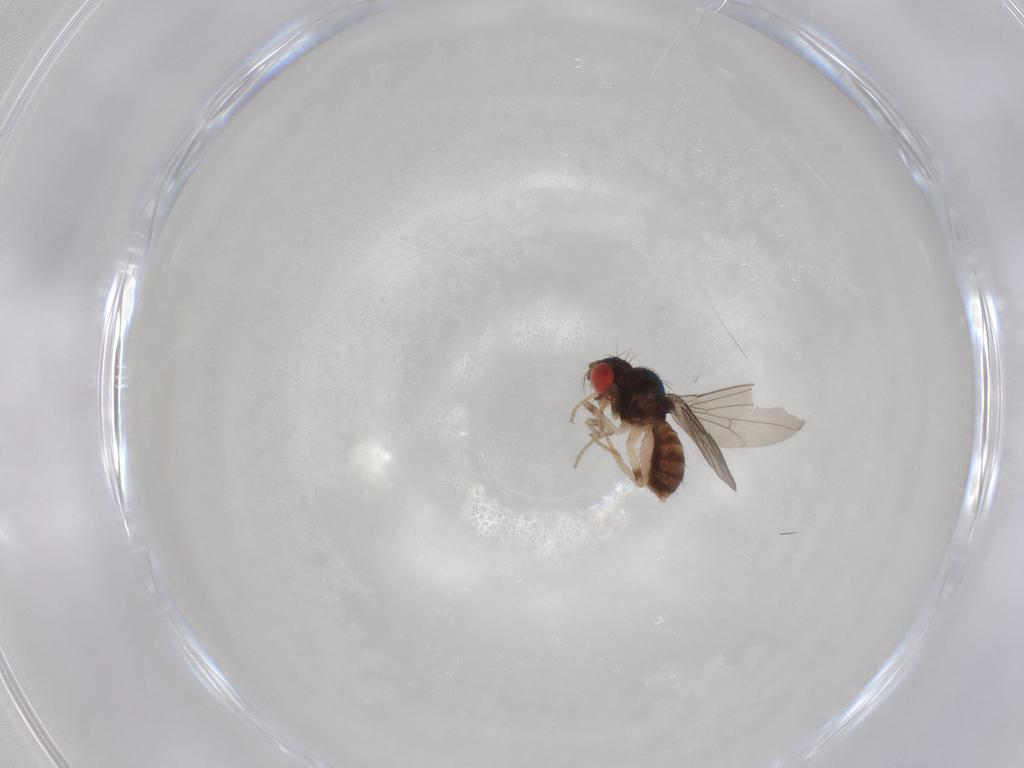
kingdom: Animalia
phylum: Arthropoda
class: Insecta
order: Diptera
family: Drosophilidae
